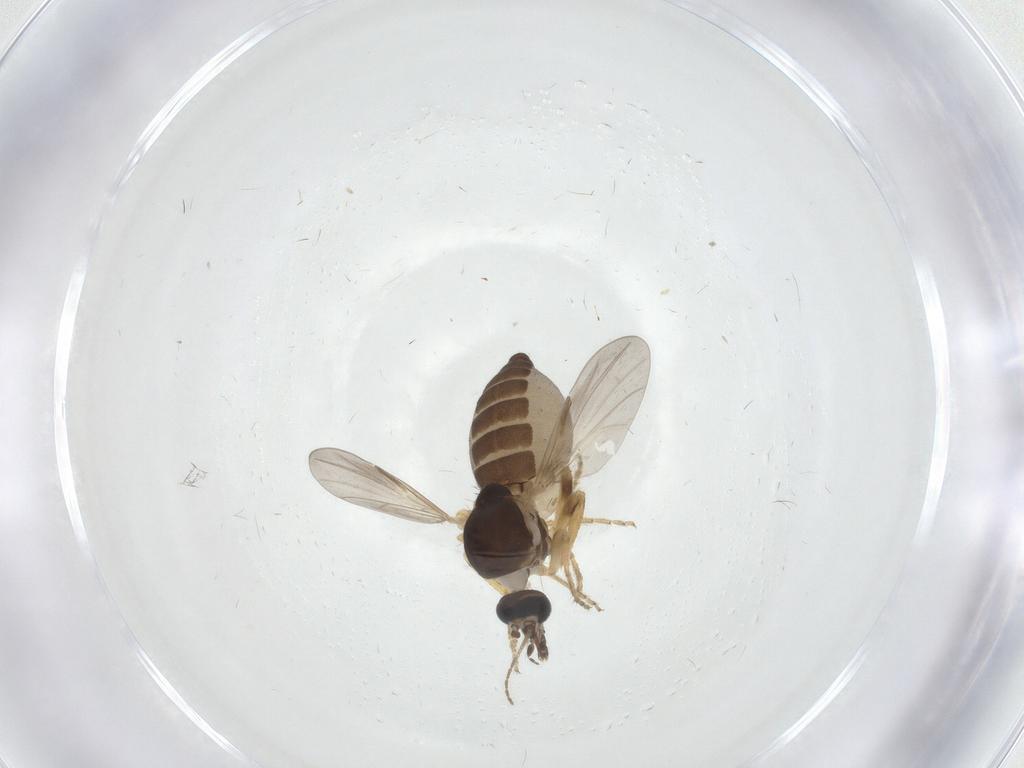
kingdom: Animalia
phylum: Arthropoda
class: Insecta
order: Diptera
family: Ceratopogonidae
